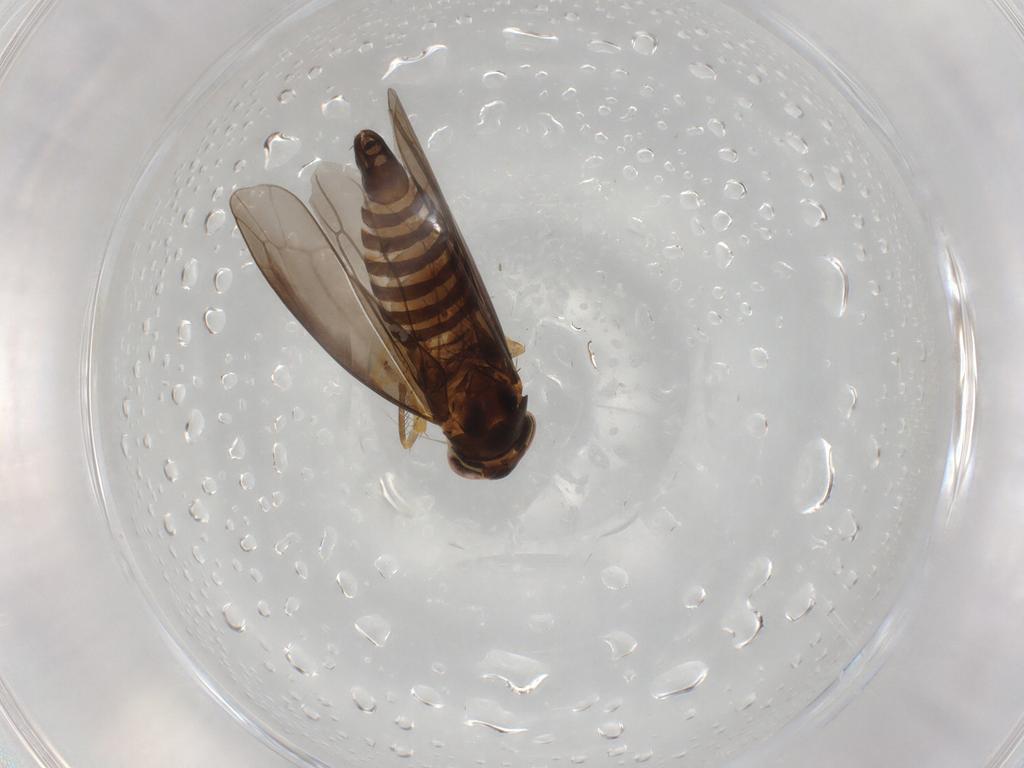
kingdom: Animalia
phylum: Arthropoda
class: Insecta
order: Hemiptera
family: Cicadellidae
